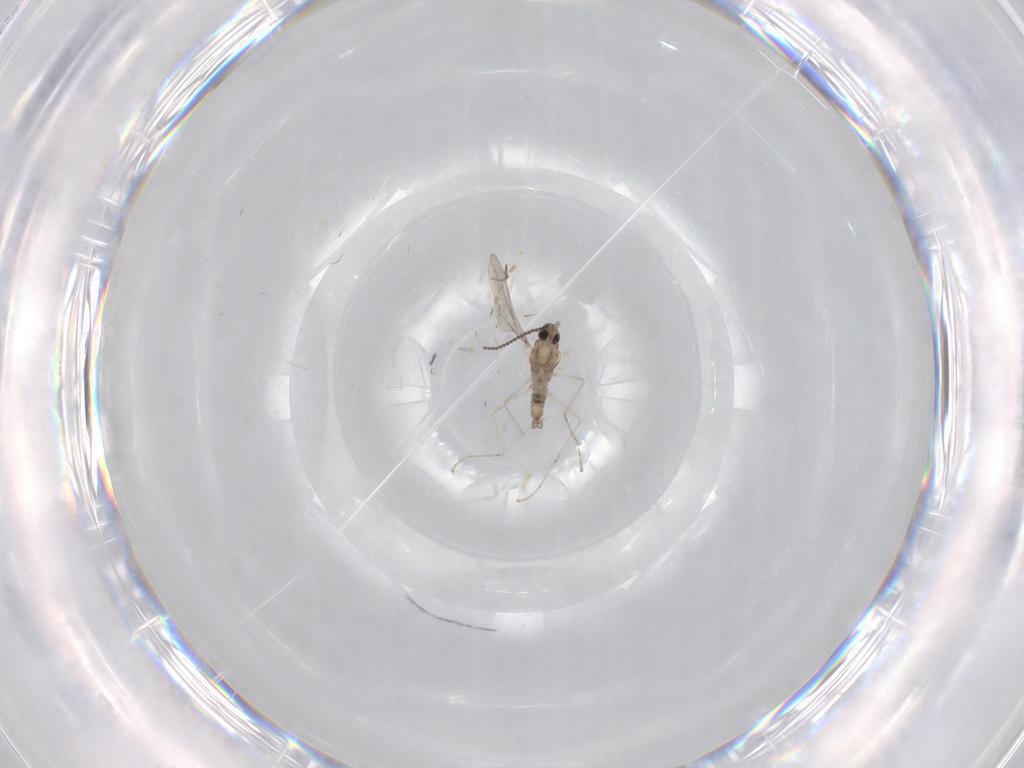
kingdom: Animalia
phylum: Arthropoda
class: Insecta
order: Diptera
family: Cecidomyiidae
